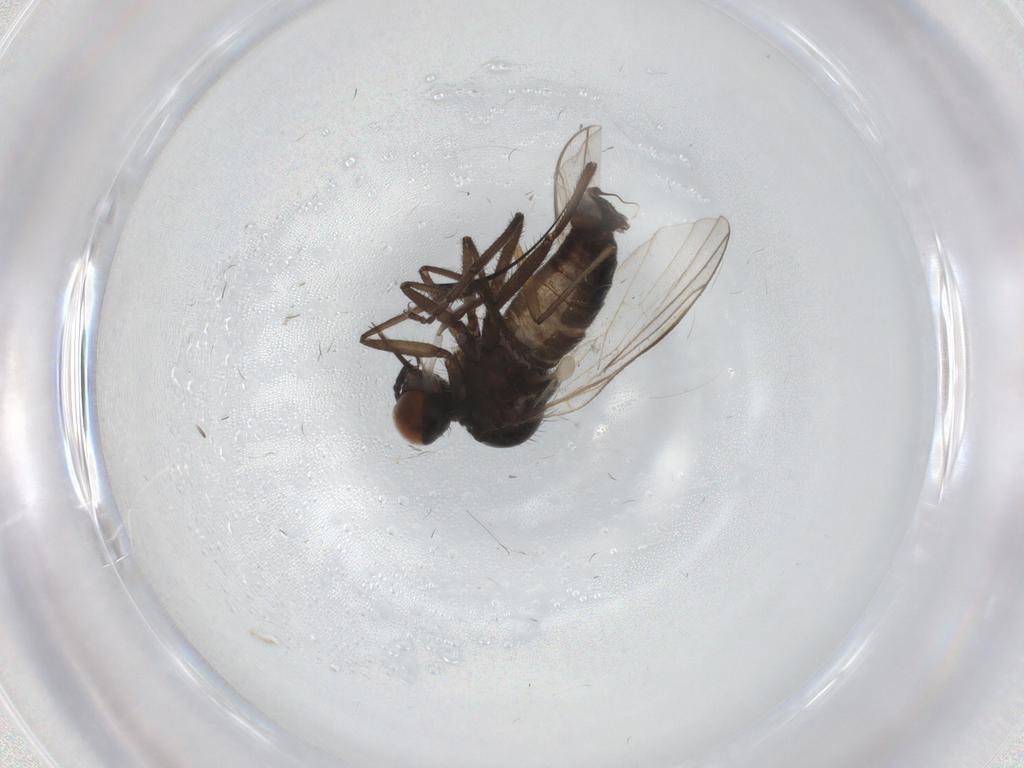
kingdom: Animalia
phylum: Arthropoda
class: Insecta
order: Diptera
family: Empididae
